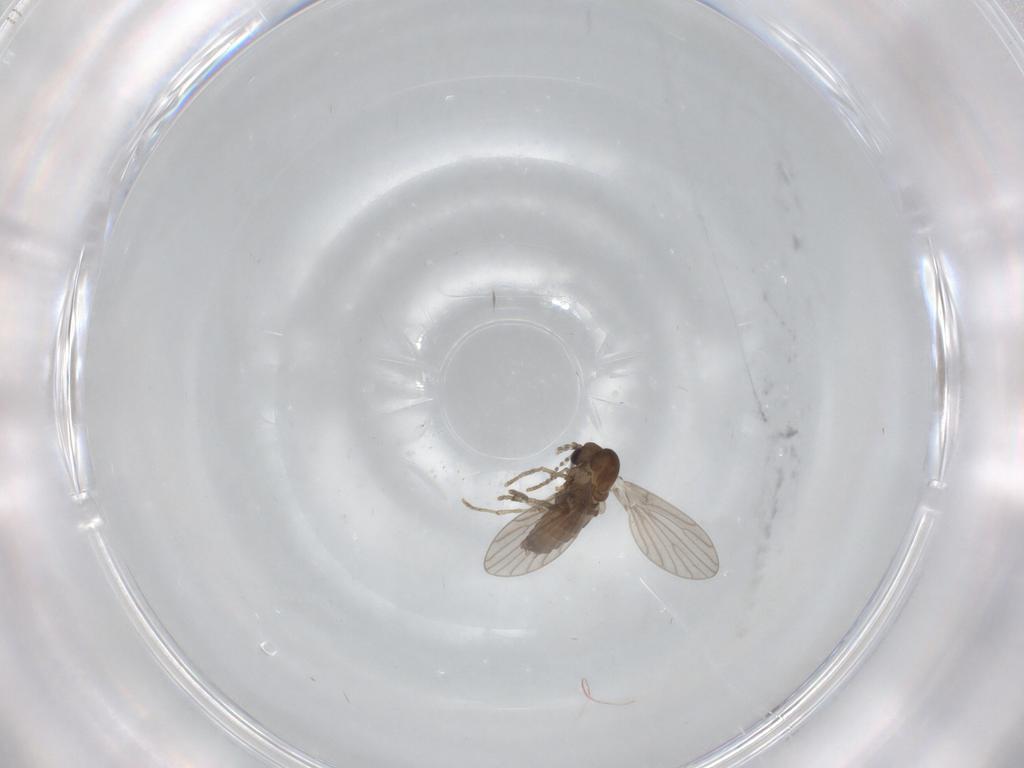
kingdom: Animalia
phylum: Arthropoda
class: Insecta
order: Diptera
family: Psychodidae
